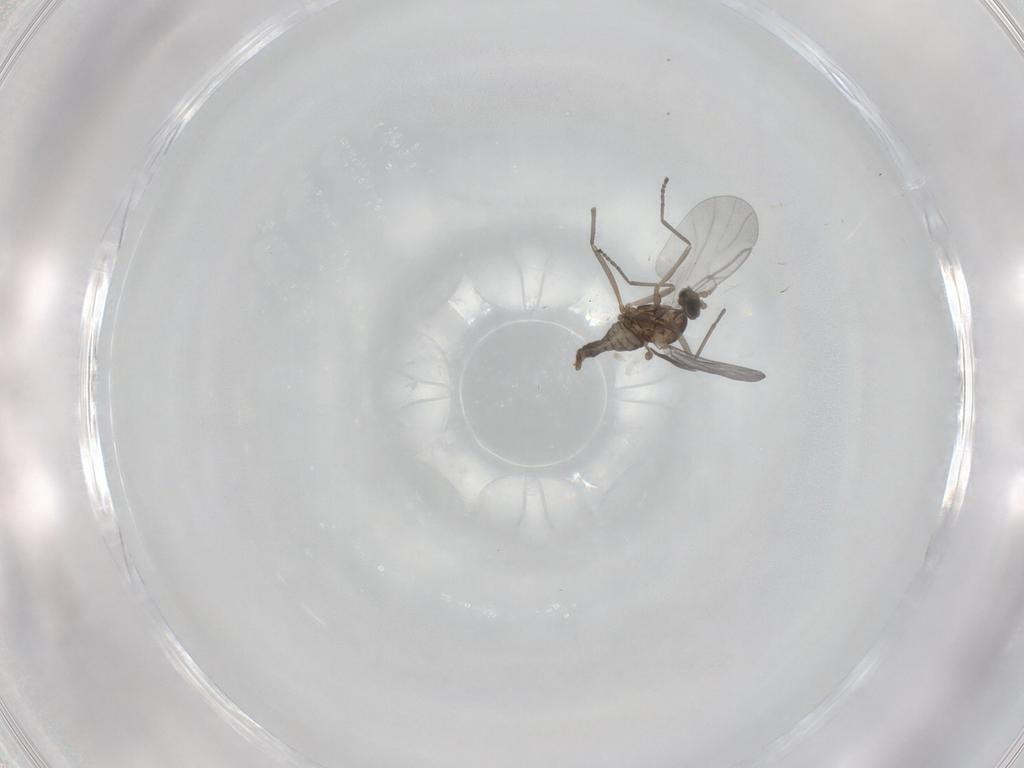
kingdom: Animalia
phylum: Arthropoda
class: Insecta
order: Diptera
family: Cecidomyiidae
